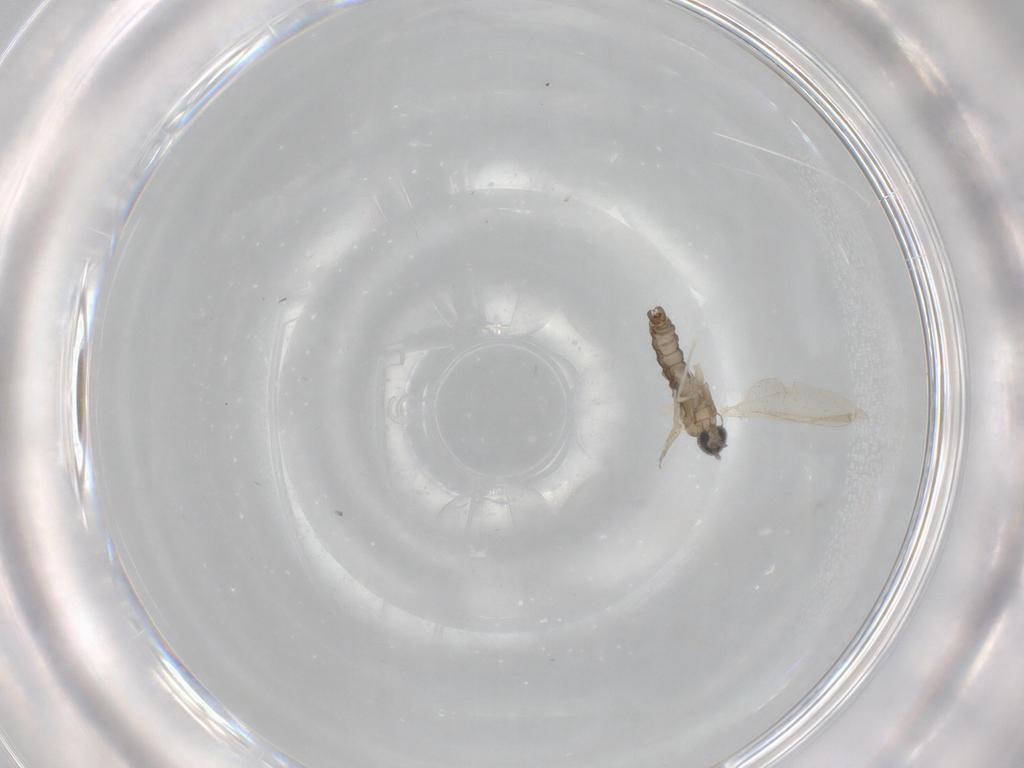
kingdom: Animalia
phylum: Arthropoda
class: Insecta
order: Diptera
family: Cecidomyiidae
